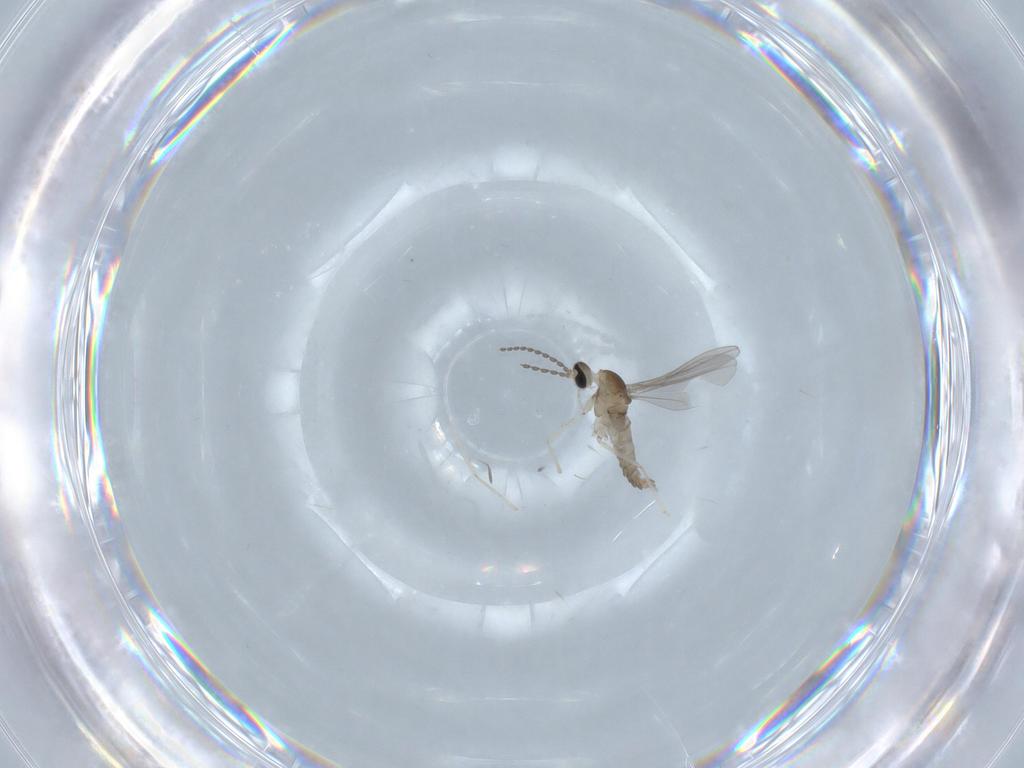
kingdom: Animalia
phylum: Arthropoda
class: Insecta
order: Diptera
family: Cecidomyiidae
